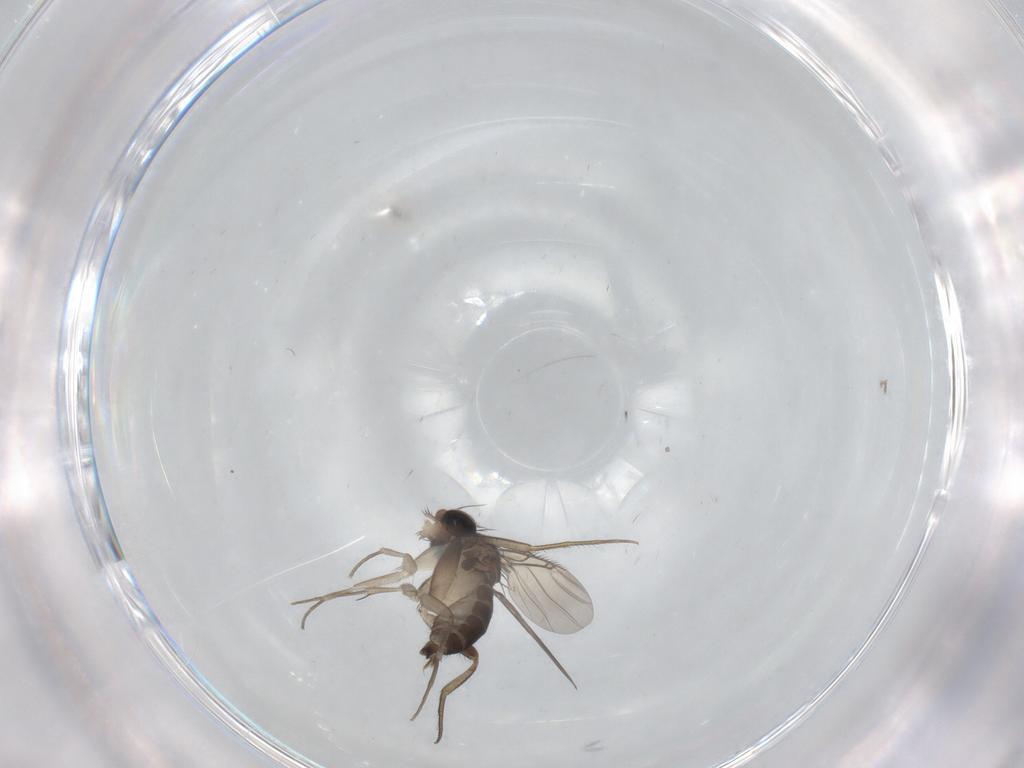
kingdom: Animalia
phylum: Arthropoda
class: Insecta
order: Diptera
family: Phoridae
